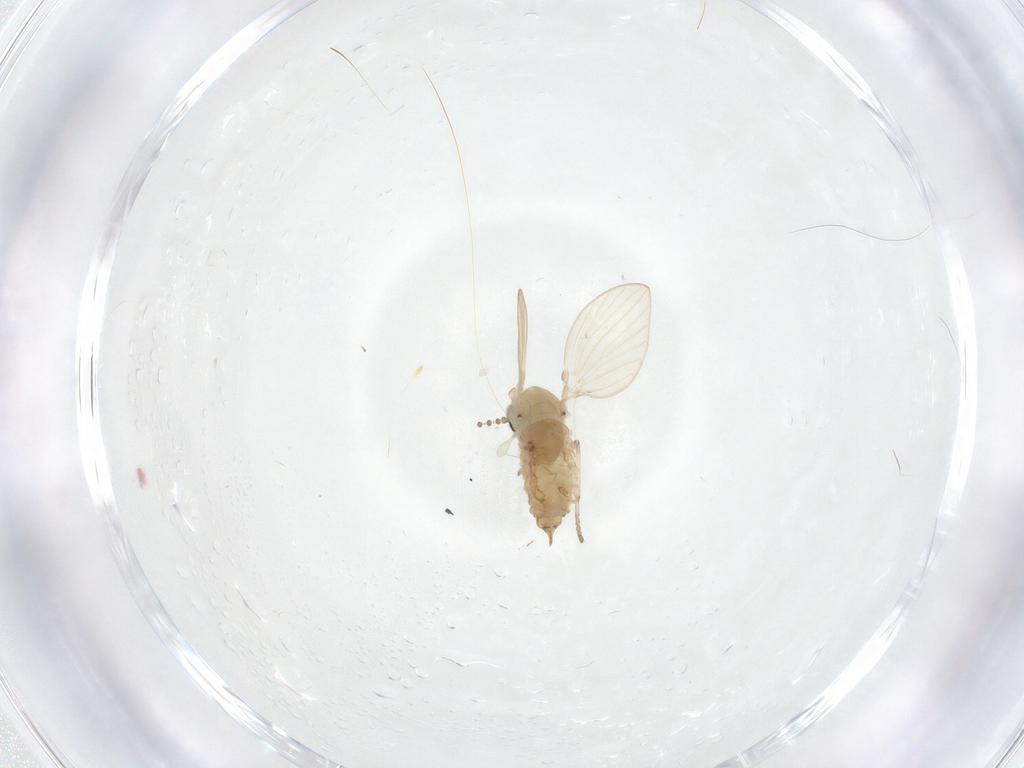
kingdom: Animalia
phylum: Arthropoda
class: Insecta
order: Diptera
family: Psychodidae
